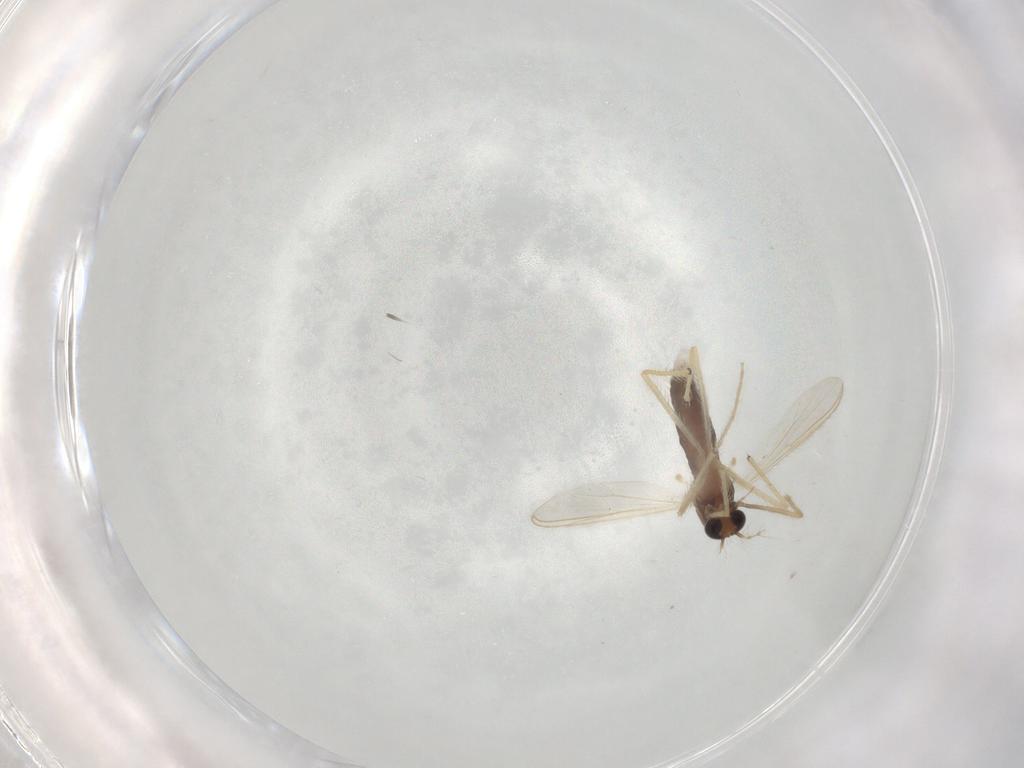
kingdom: Animalia
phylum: Arthropoda
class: Insecta
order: Diptera
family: Chironomidae
